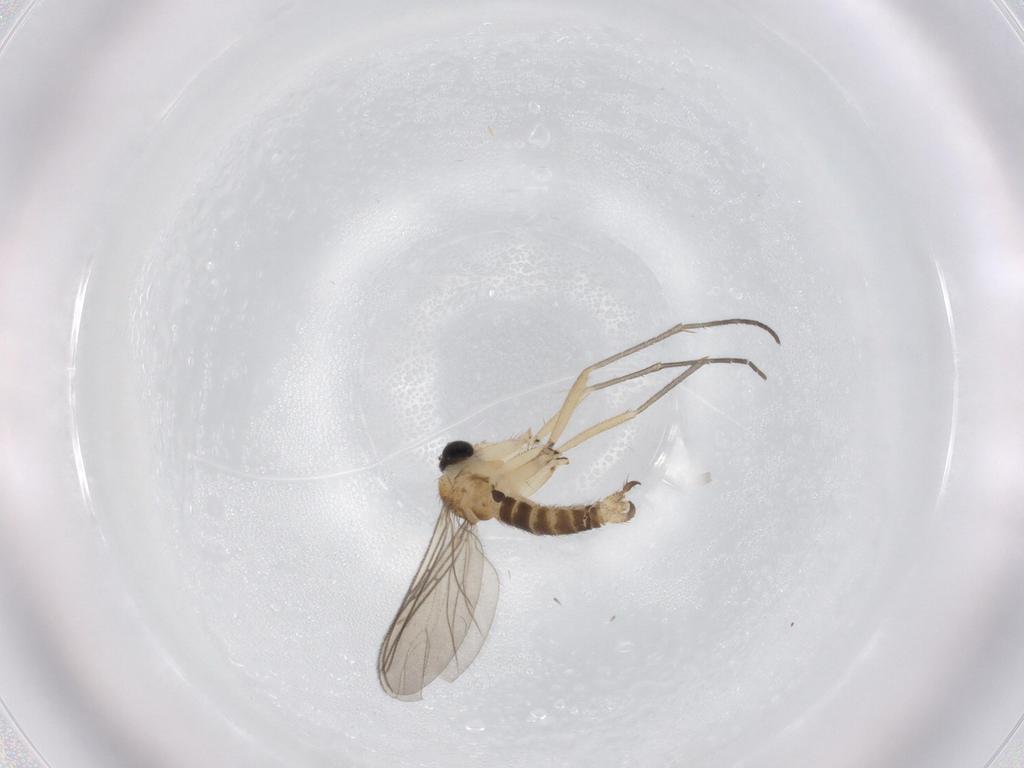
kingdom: Animalia
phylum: Arthropoda
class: Insecta
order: Diptera
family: Sciaridae
